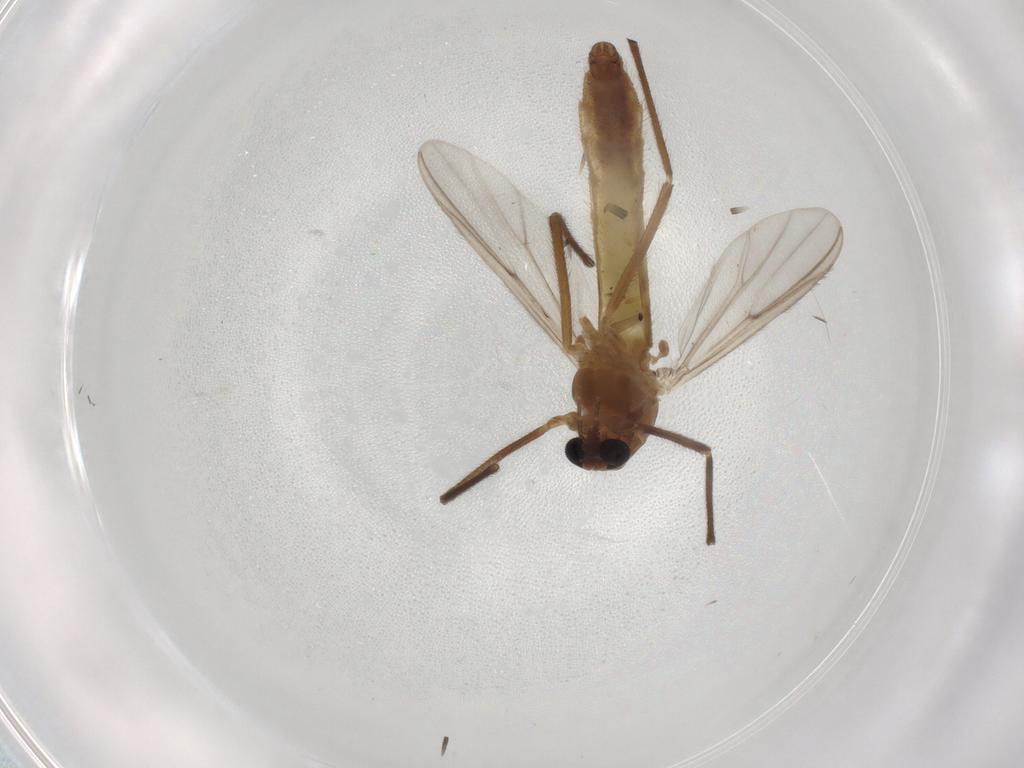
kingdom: Animalia
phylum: Arthropoda
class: Insecta
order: Diptera
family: Chironomidae
